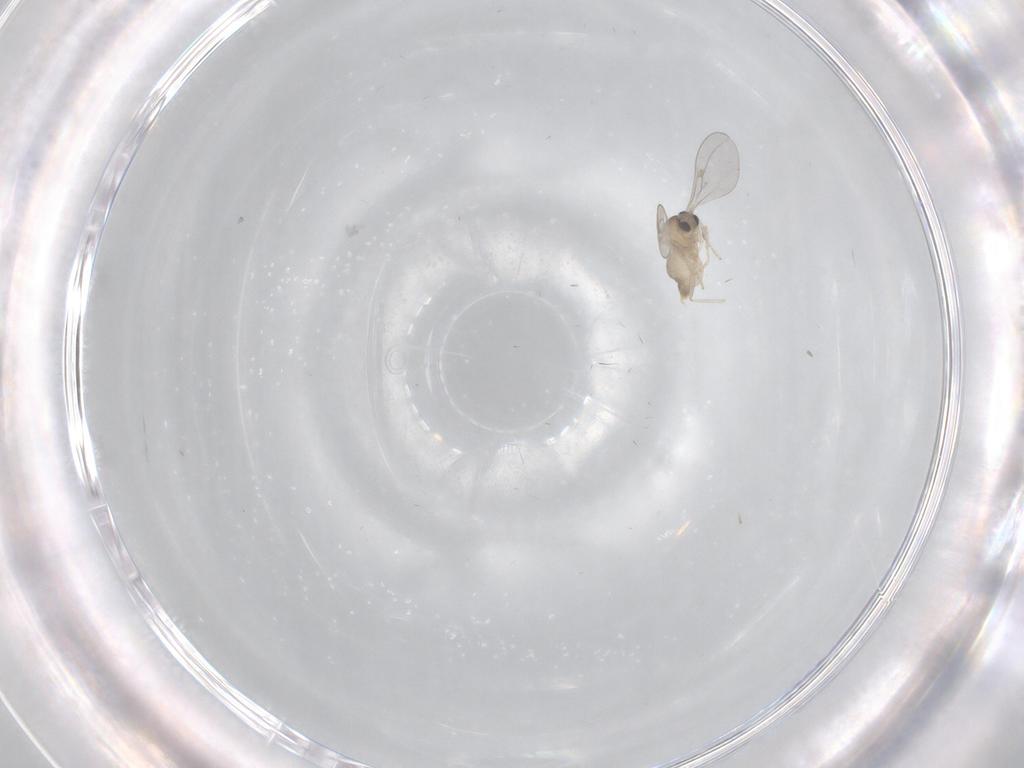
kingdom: Animalia
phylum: Arthropoda
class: Insecta
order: Diptera
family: Cecidomyiidae
